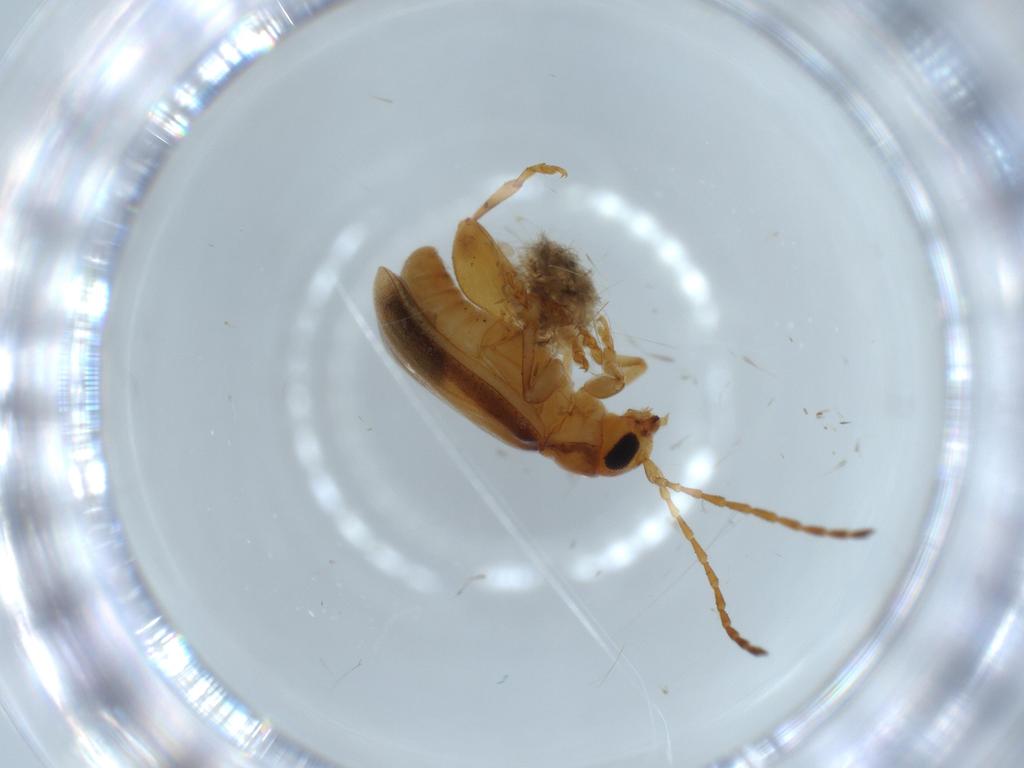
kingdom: Animalia
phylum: Arthropoda
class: Insecta
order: Coleoptera
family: Chrysomelidae
